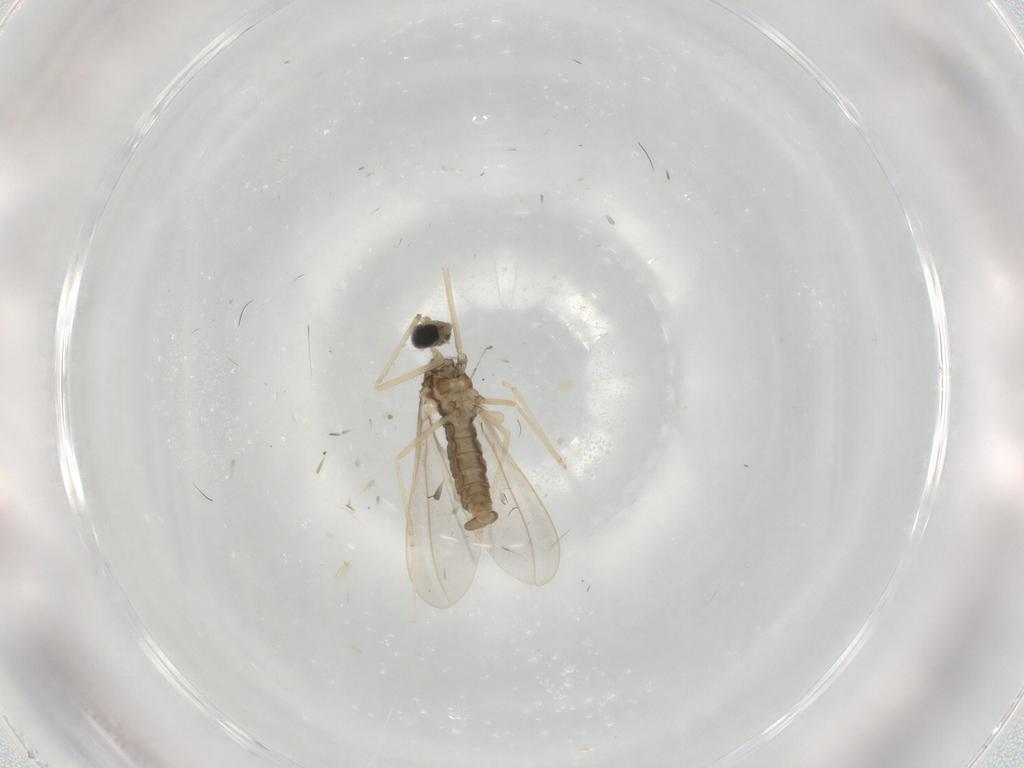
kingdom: Animalia
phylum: Arthropoda
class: Insecta
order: Diptera
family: Cecidomyiidae
